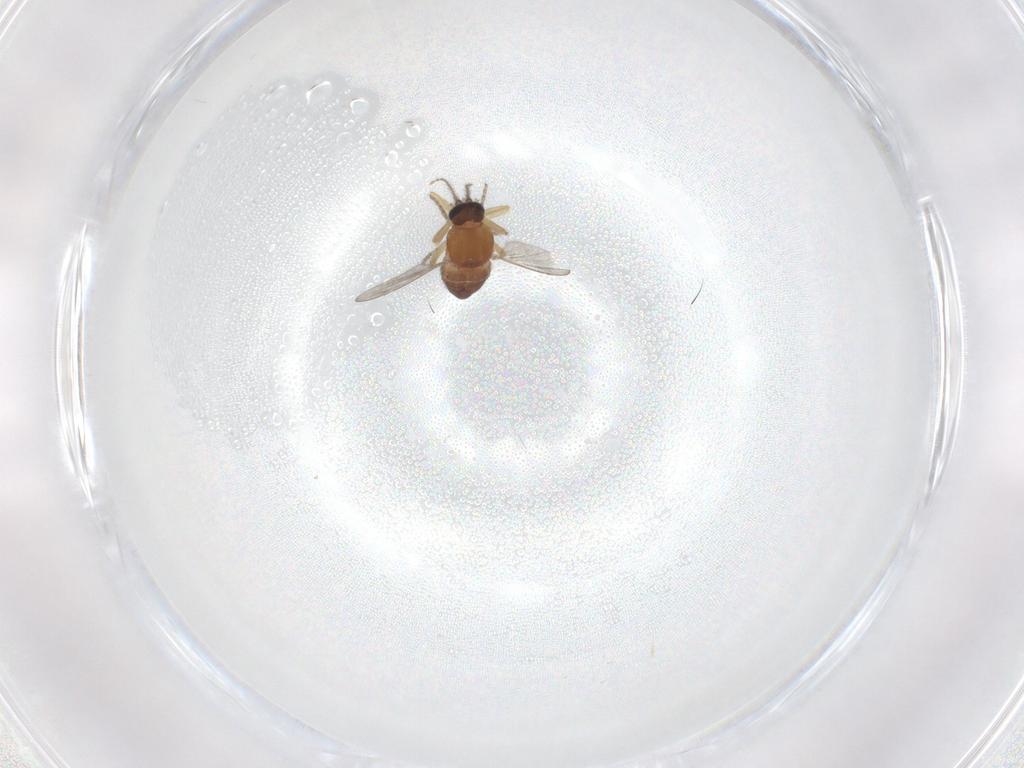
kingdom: Animalia
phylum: Arthropoda
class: Insecta
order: Diptera
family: Ceratopogonidae
